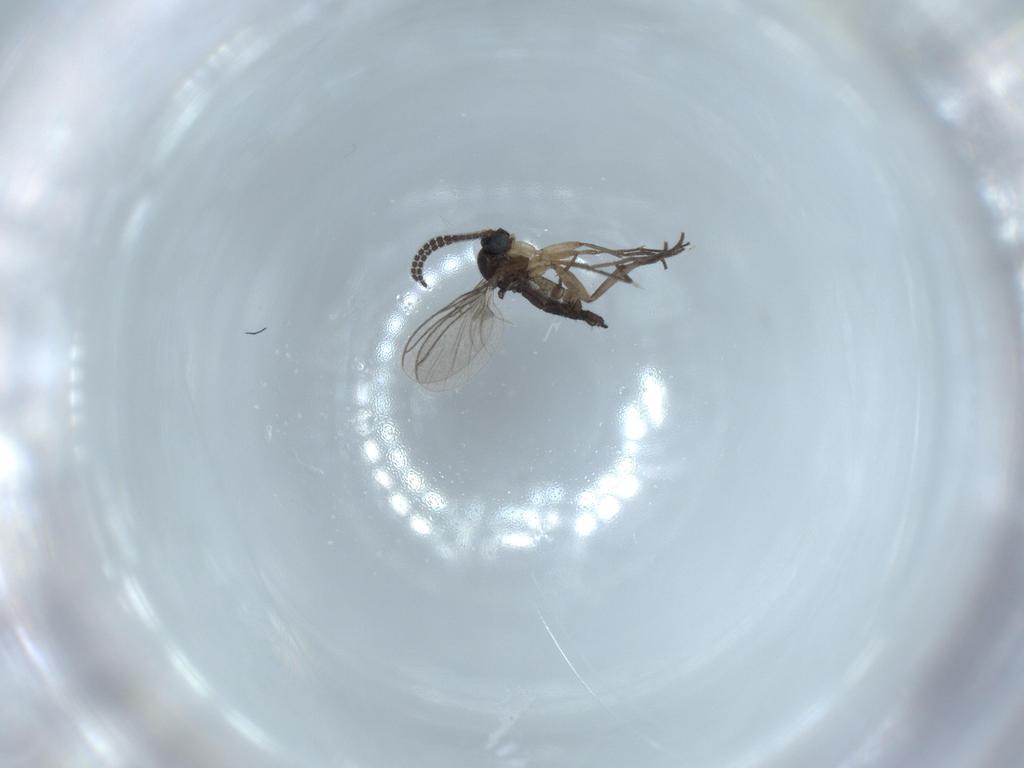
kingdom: Animalia
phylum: Arthropoda
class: Insecta
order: Diptera
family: Sciaridae
